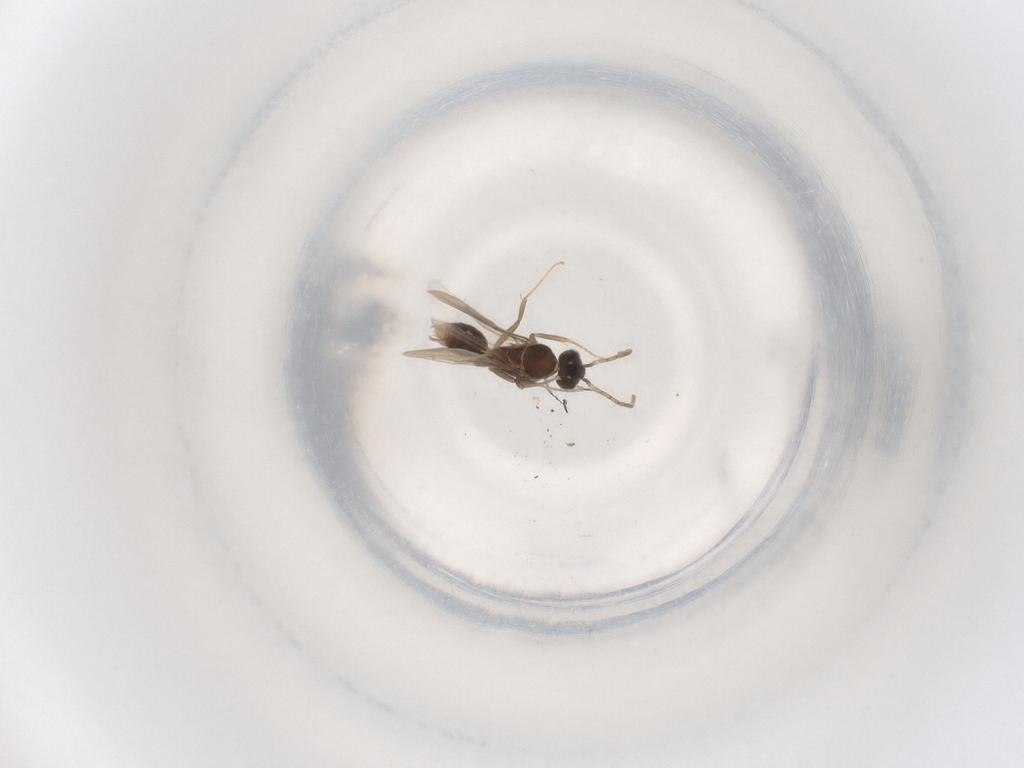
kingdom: Animalia
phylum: Arthropoda
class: Insecta
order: Hymenoptera
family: Formicidae
